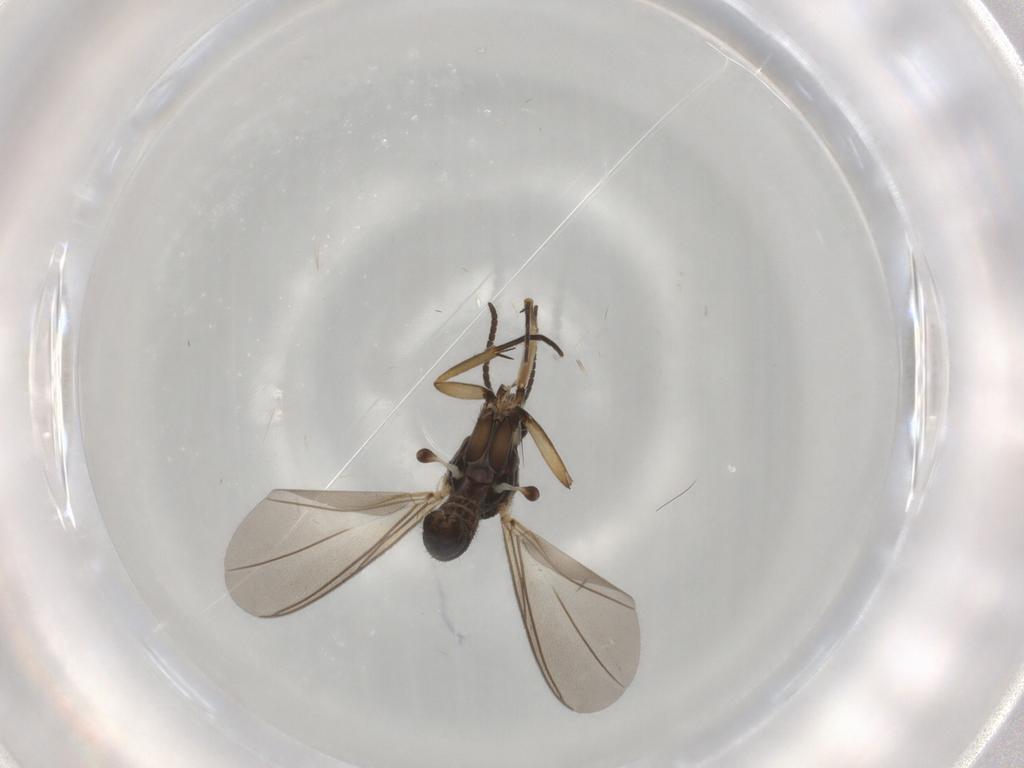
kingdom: Animalia
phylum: Arthropoda
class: Insecta
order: Diptera
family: Mycetophilidae
